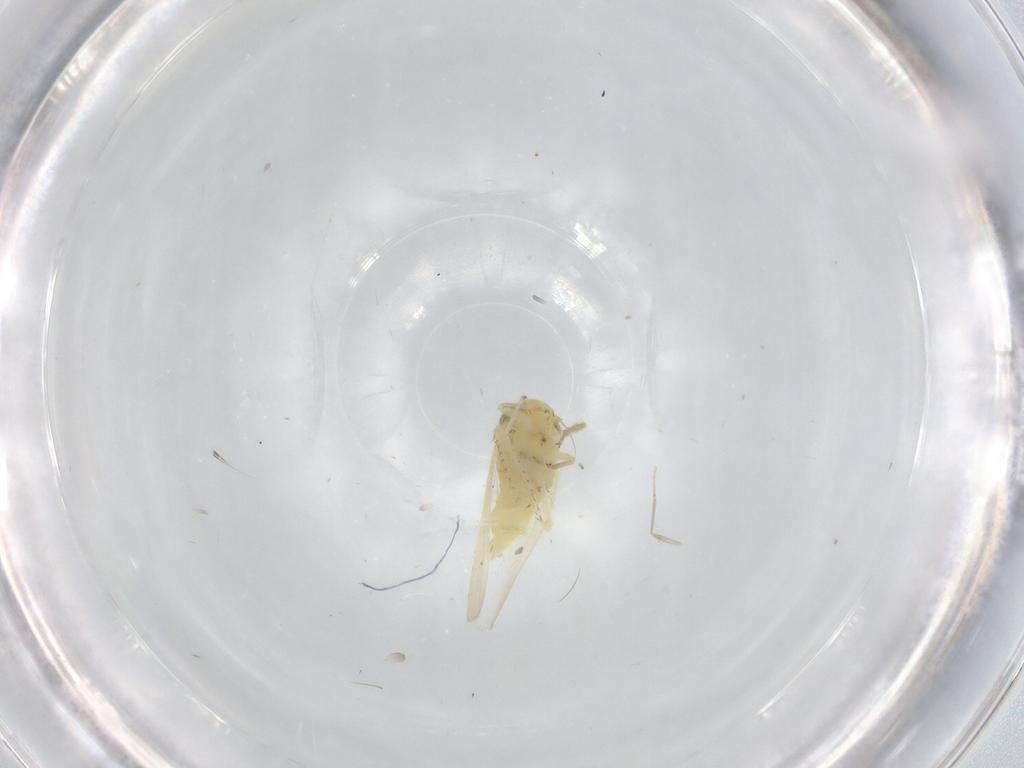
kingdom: Animalia
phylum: Arthropoda
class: Insecta
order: Hemiptera
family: Cicadellidae
